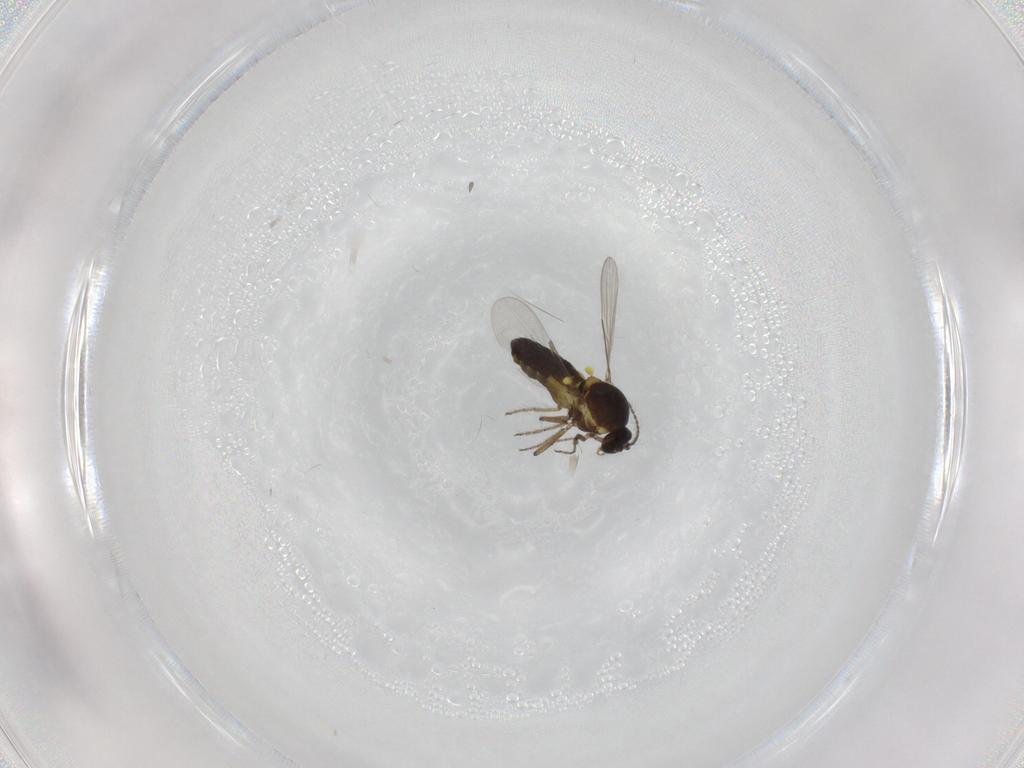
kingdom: Animalia
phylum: Arthropoda
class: Insecta
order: Diptera
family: Ceratopogonidae
